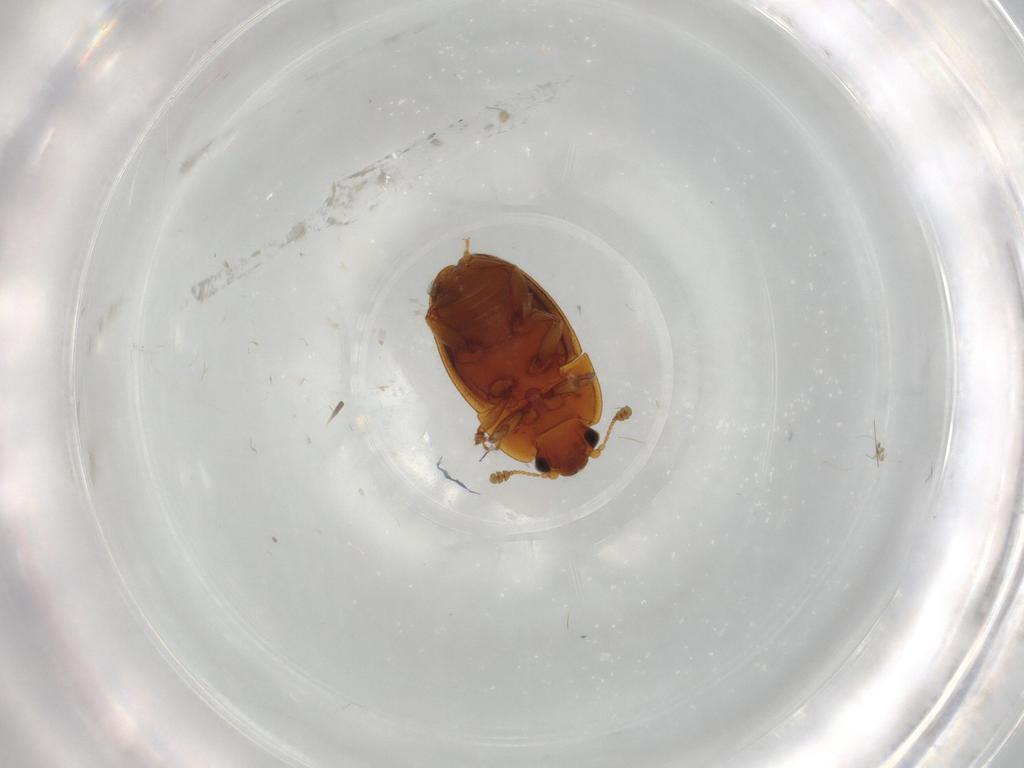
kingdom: Animalia
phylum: Arthropoda
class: Insecta
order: Coleoptera
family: Nitidulidae
